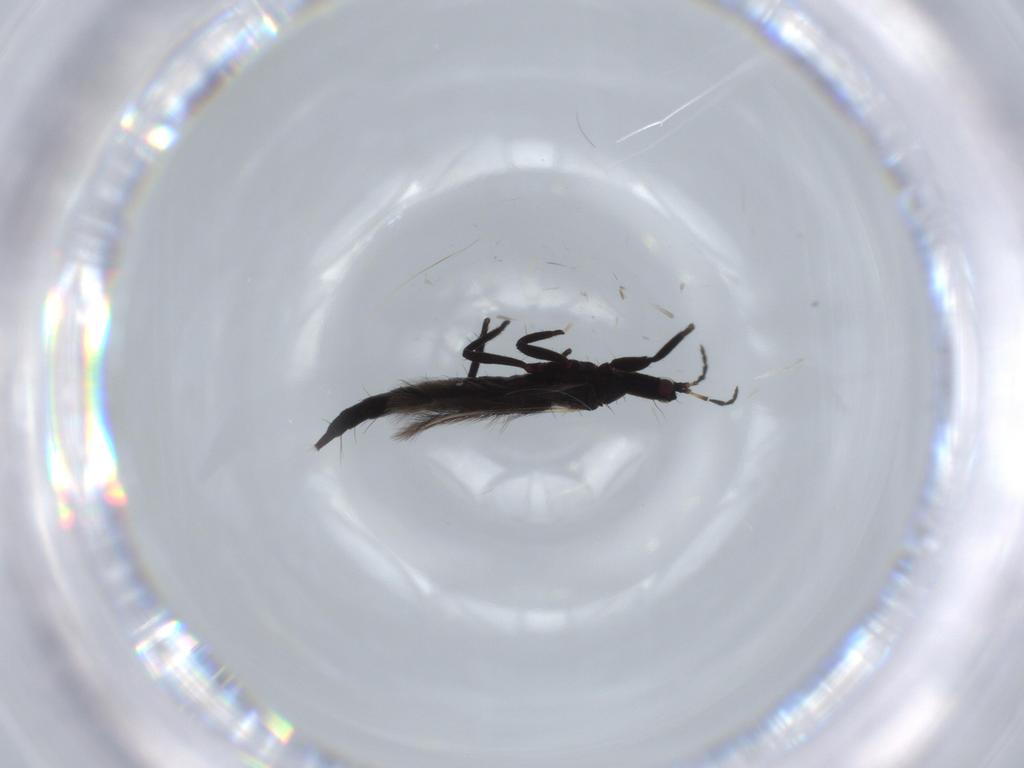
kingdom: Animalia
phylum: Arthropoda
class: Insecta
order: Thysanoptera
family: Phlaeothripidae
